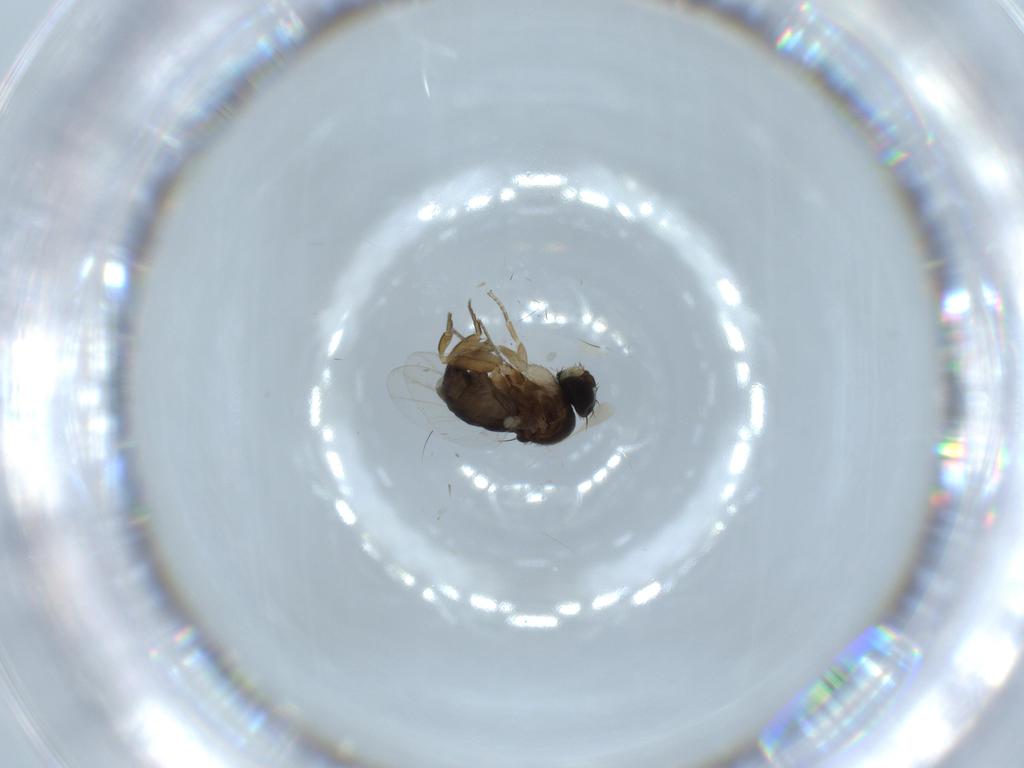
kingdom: Animalia
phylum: Arthropoda
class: Insecta
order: Diptera
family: Phoridae
